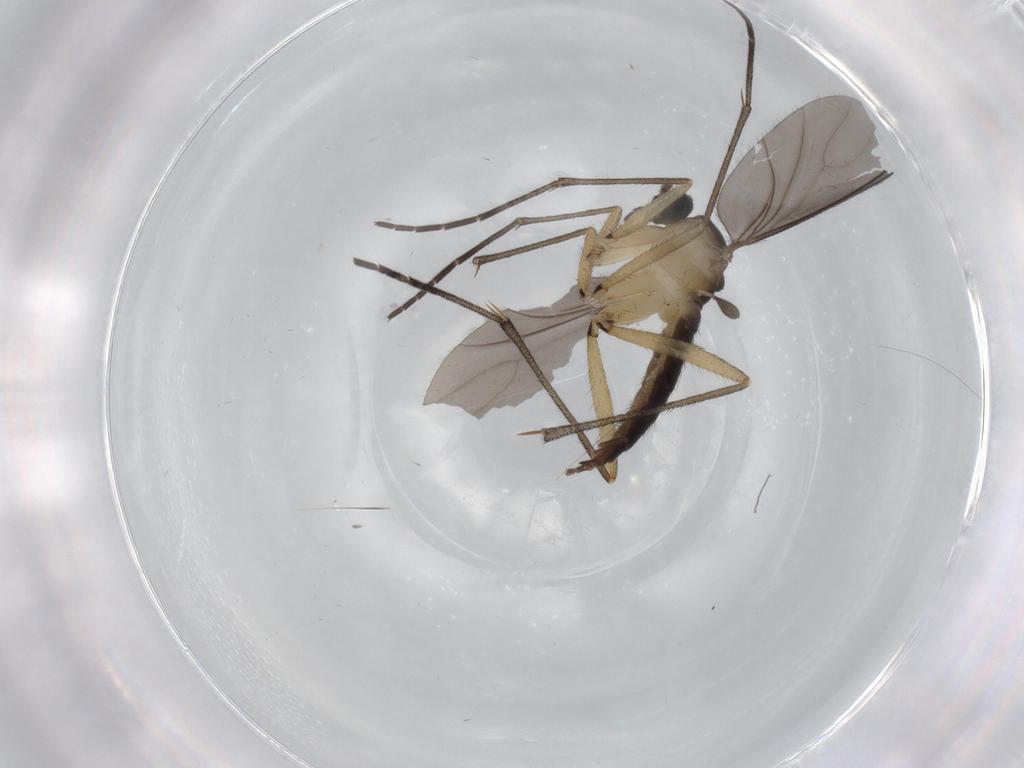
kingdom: Animalia
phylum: Arthropoda
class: Insecta
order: Diptera
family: Sciaridae
